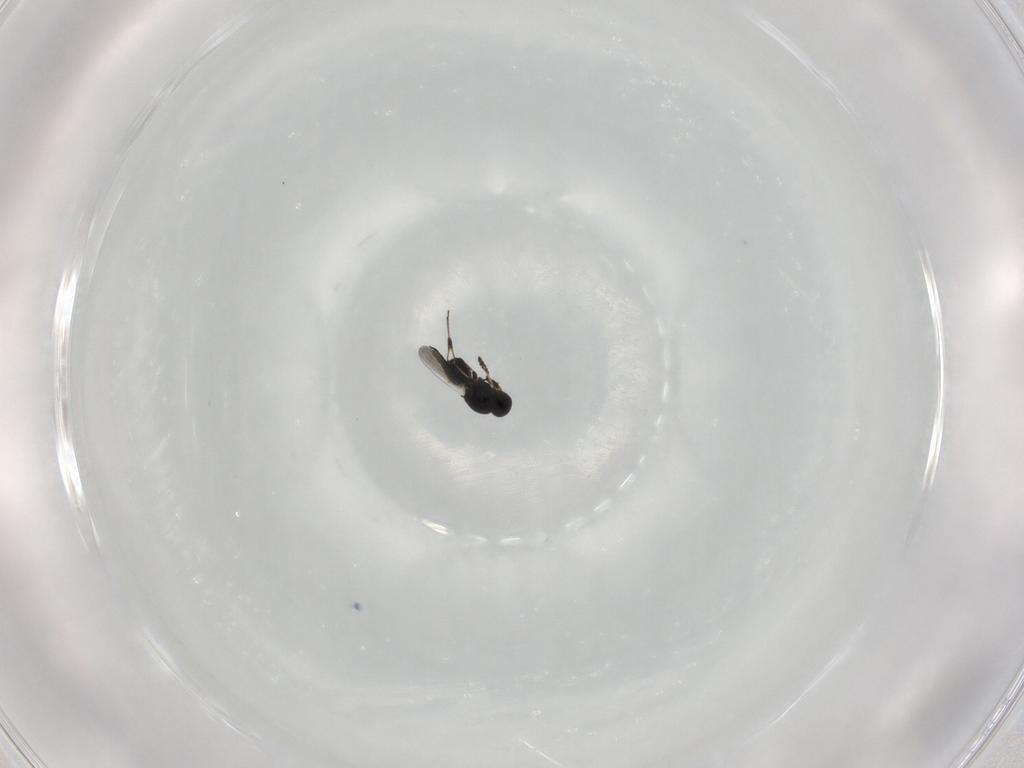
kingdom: Animalia
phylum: Arthropoda
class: Insecta
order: Hymenoptera
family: Platygastridae
